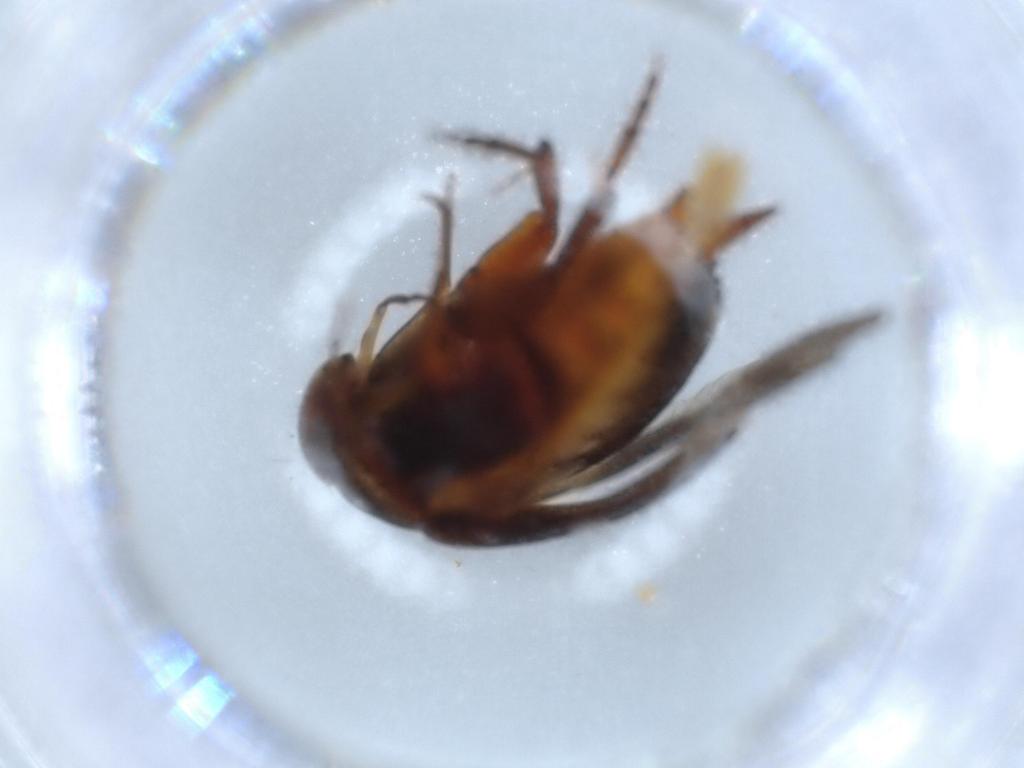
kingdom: Animalia
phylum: Arthropoda
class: Insecta
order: Coleoptera
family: Mordellidae
